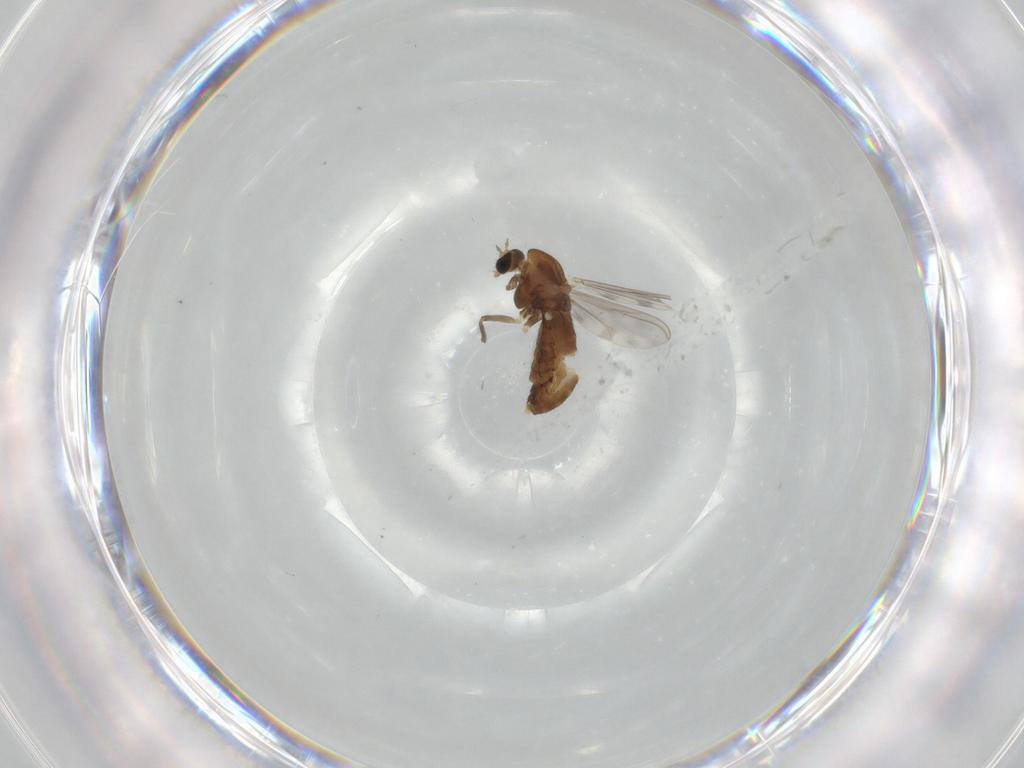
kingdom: Animalia
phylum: Arthropoda
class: Insecta
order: Diptera
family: Chironomidae
